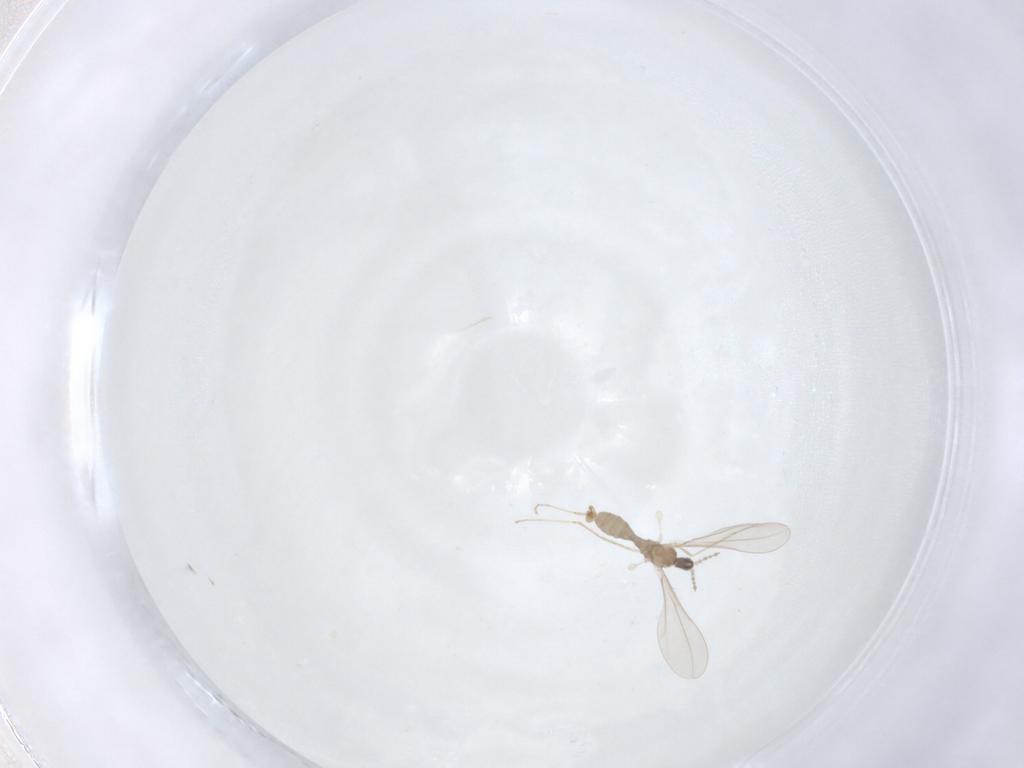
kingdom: Animalia
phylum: Arthropoda
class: Insecta
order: Diptera
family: Cecidomyiidae
